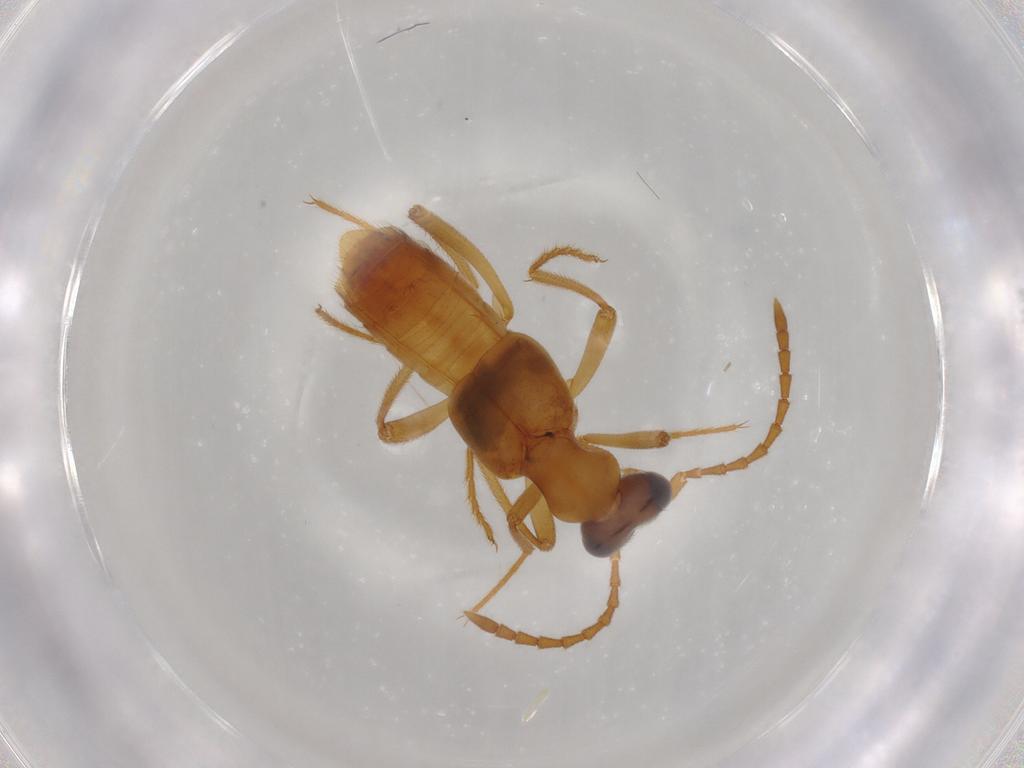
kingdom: Animalia
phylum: Arthropoda
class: Insecta
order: Coleoptera
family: Staphylinidae
